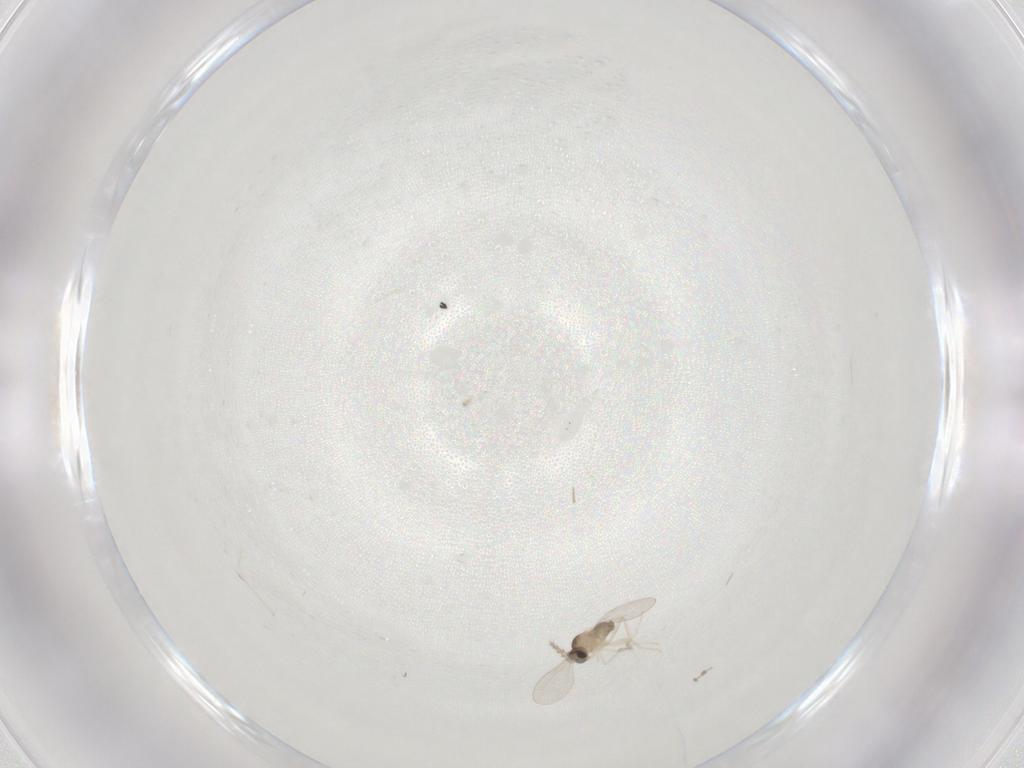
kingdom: Animalia
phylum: Arthropoda
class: Insecta
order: Diptera
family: Cecidomyiidae
